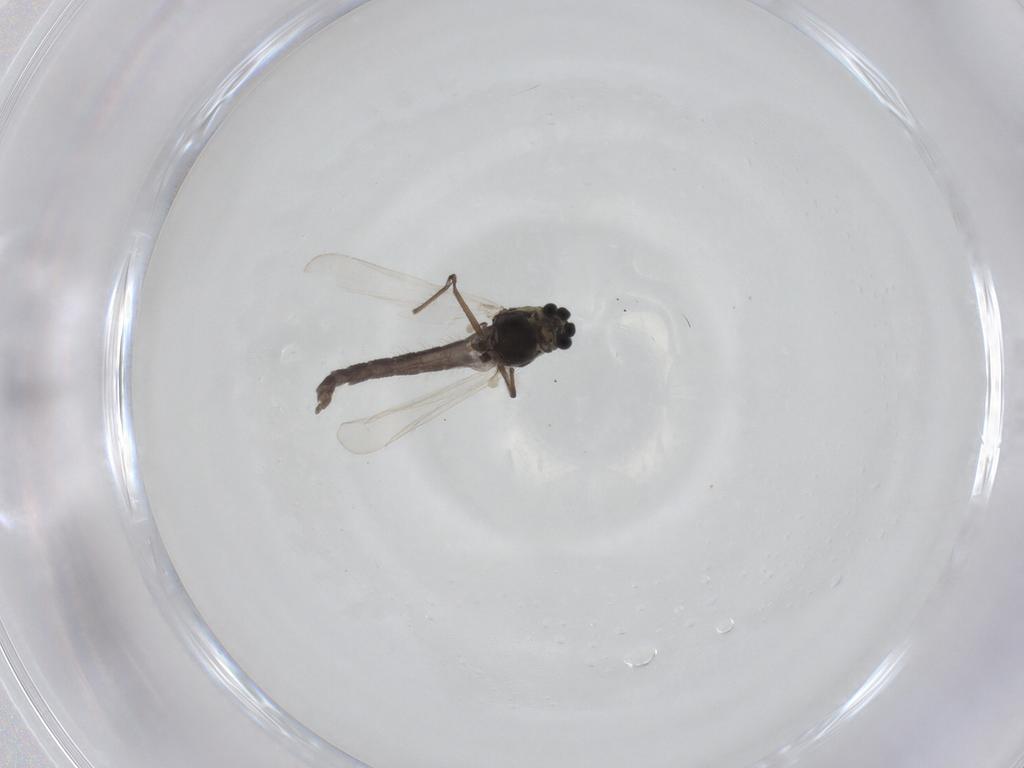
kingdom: Animalia
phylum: Arthropoda
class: Insecta
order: Diptera
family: Chironomidae
